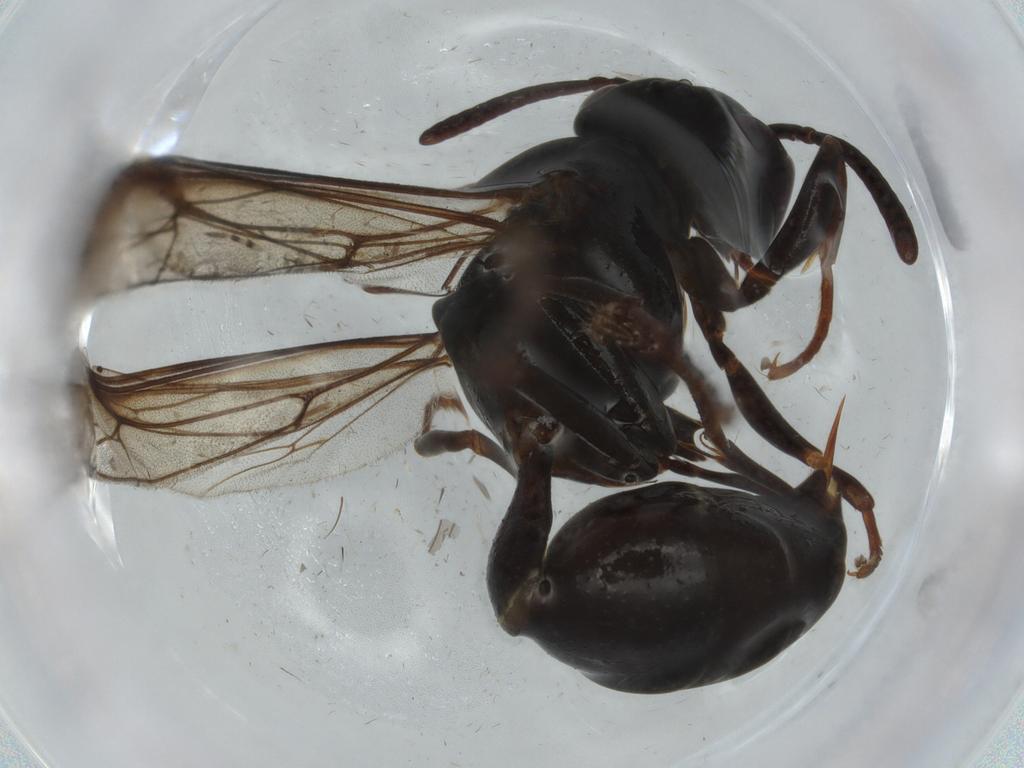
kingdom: Animalia
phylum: Arthropoda
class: Insecta
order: Hymenoptera
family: Vespidae
